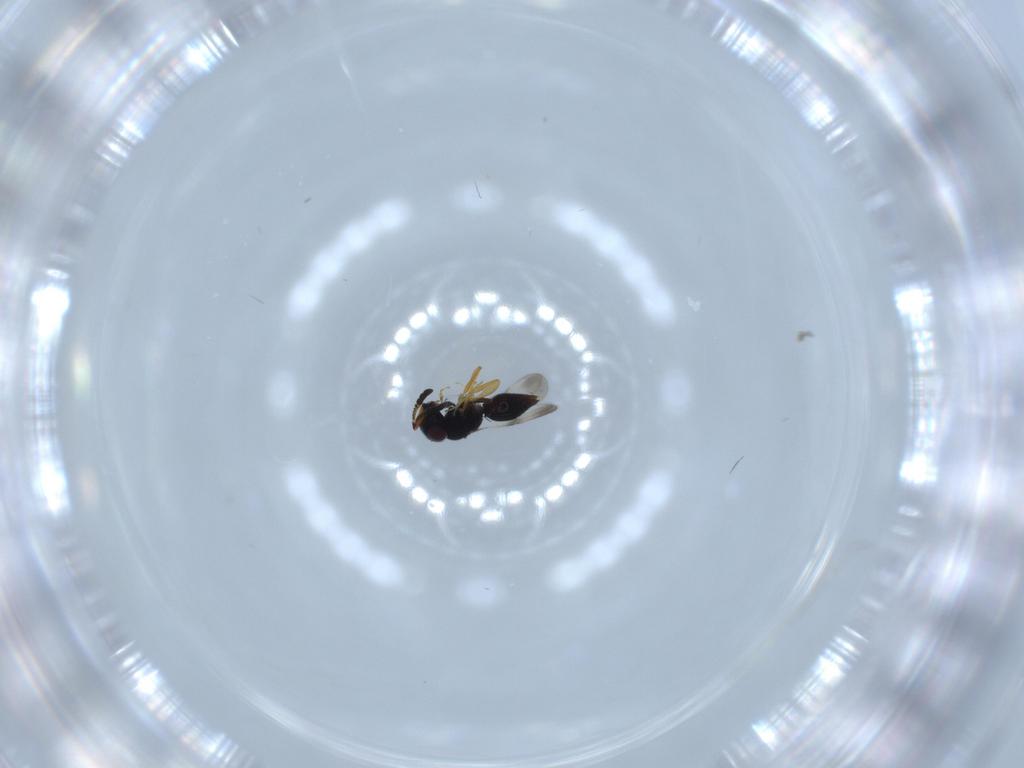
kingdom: Animalia
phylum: Arthropoda
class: Insecta
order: Hymenoptera
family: Ceraphronidae
